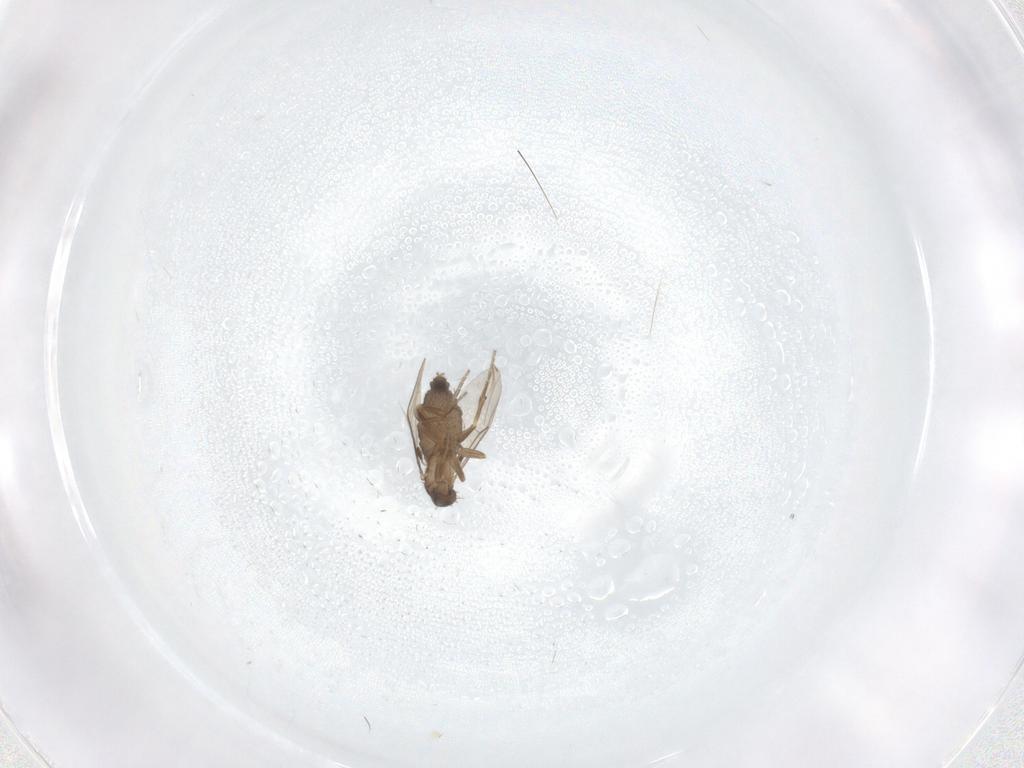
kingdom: Animalia
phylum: Arthropoda
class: Insecta
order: Diptera
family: Phoridae
